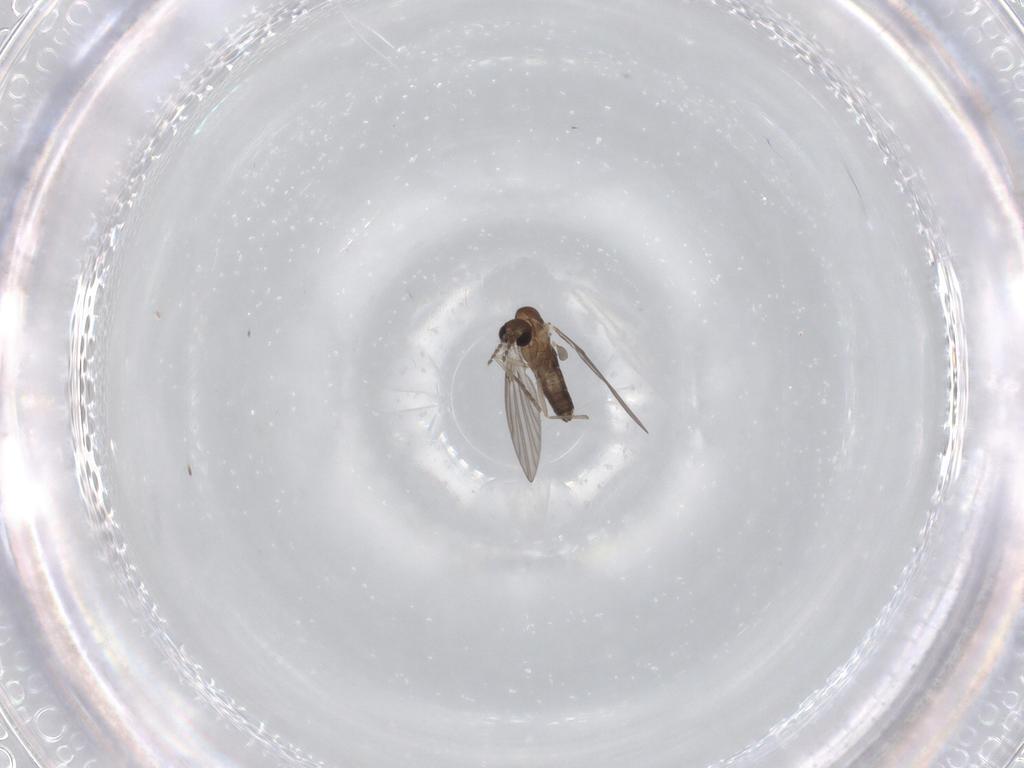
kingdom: Animalia
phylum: Arthropoda
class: Insecta
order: Diptera
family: Psychodidae
